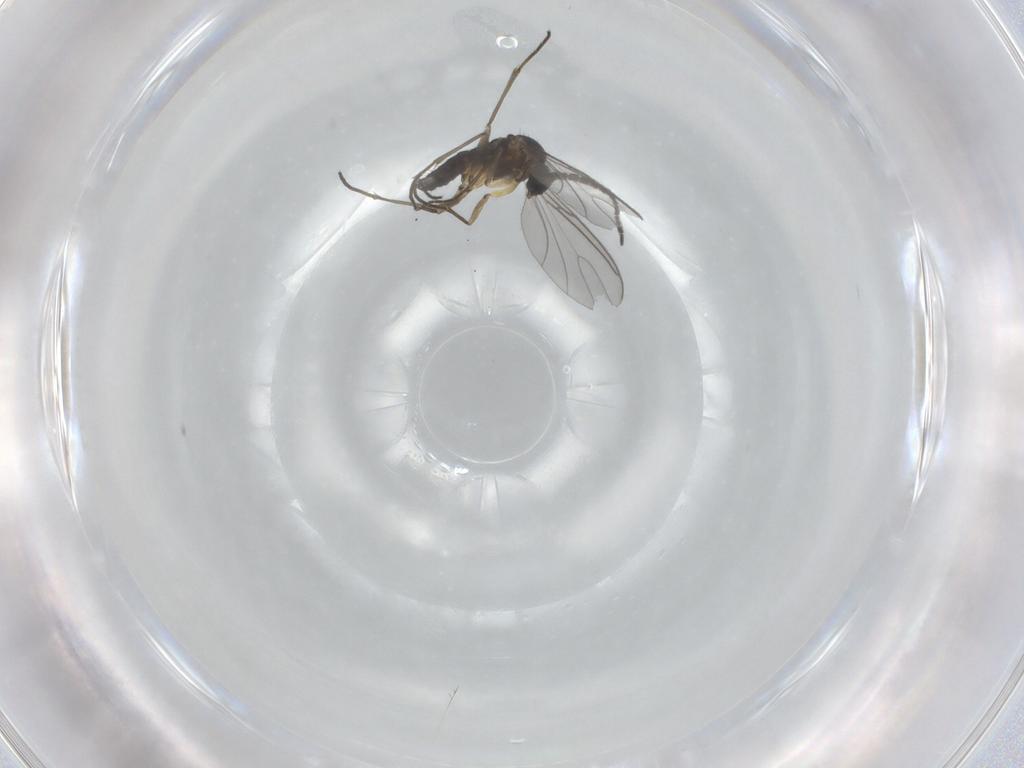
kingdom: Animalia
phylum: Arthropoda
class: Insecta
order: Diptera
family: Sciaridae
